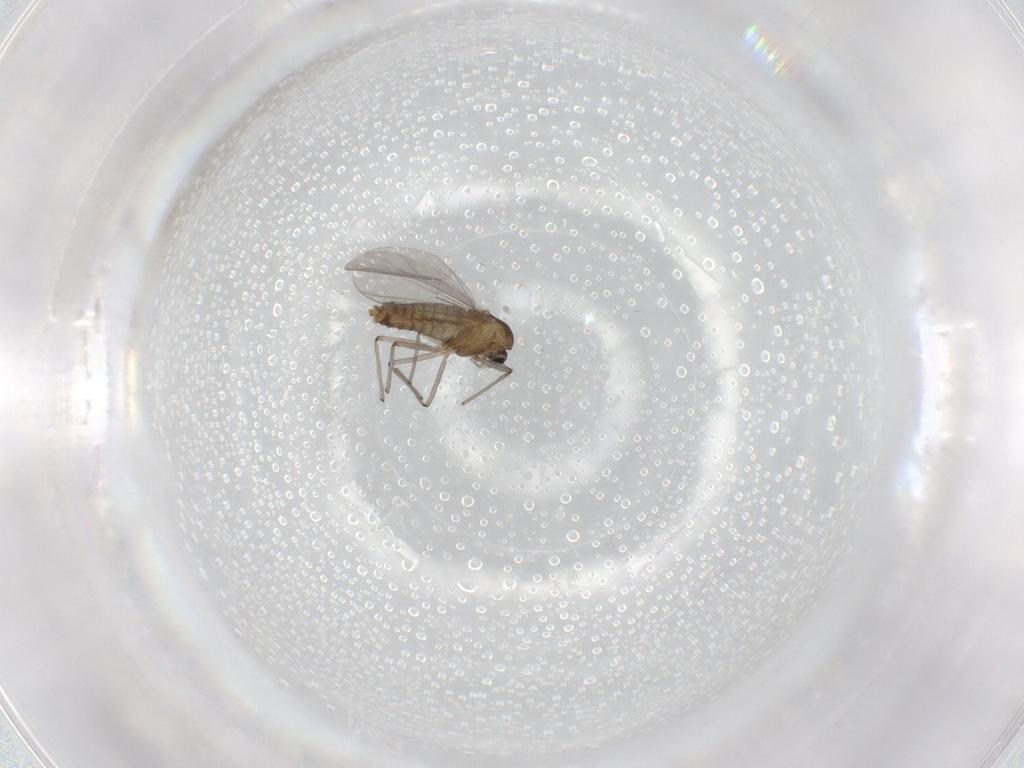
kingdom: Animalia
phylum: Arthropoda
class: Insecta
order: Diptera
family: Chironomidae
